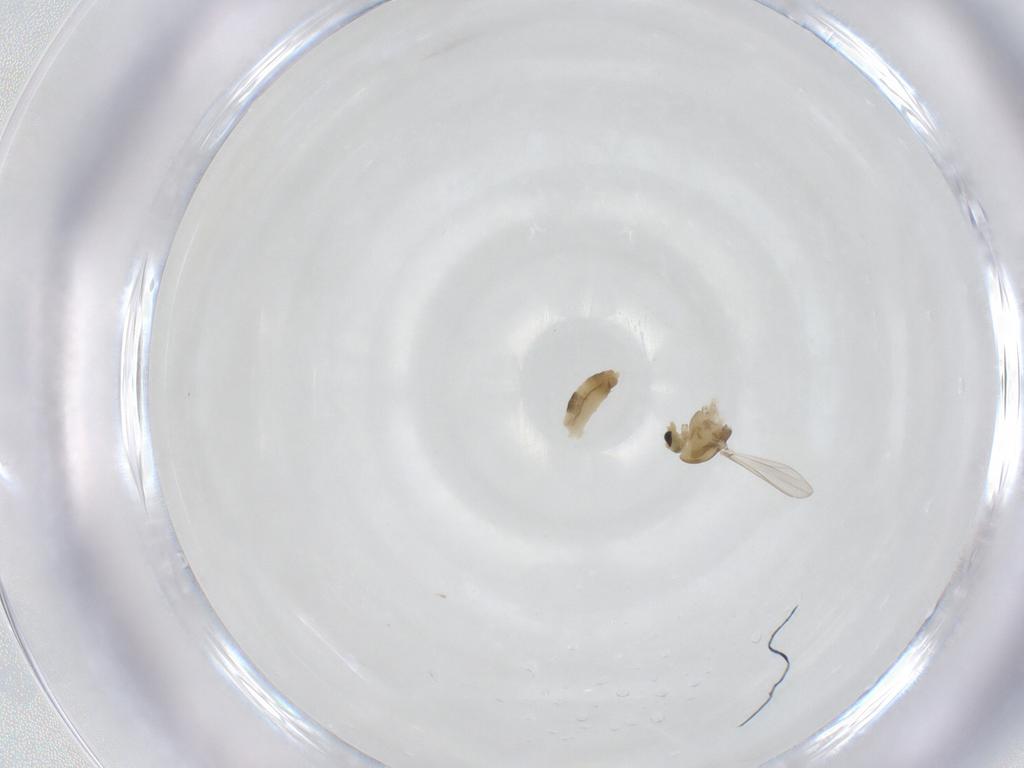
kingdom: Animalia
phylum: Arthropoda
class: Insecta
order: Diptera
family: Chironomidae
